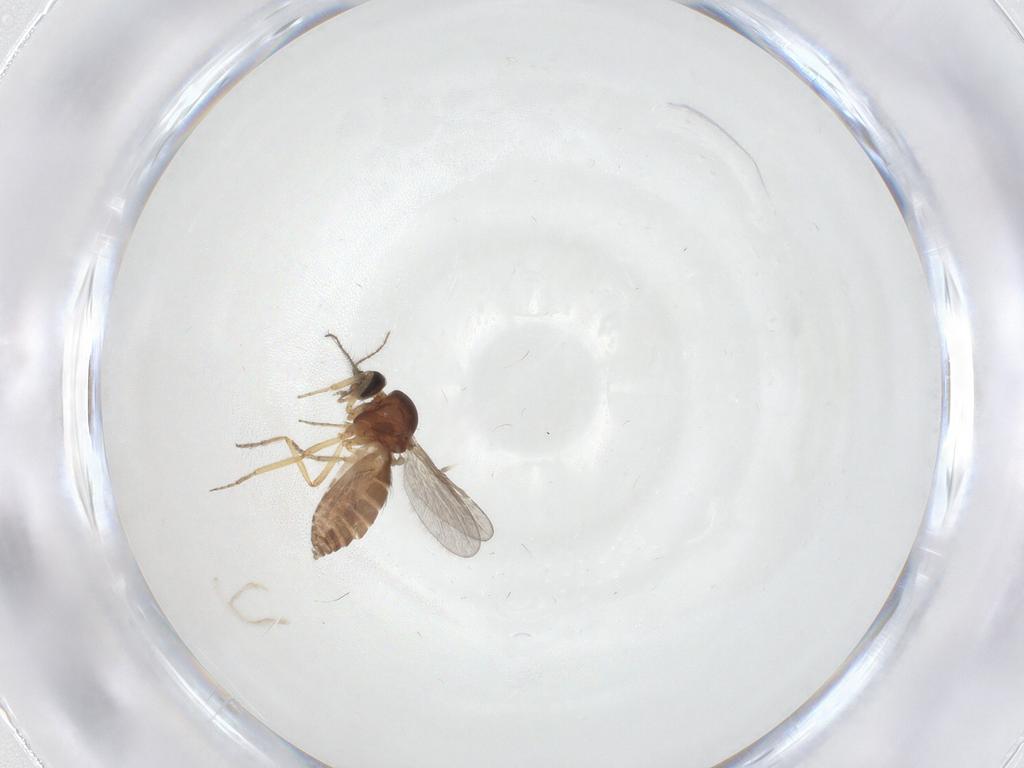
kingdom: Animalia
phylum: Arthropoda
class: Insecta
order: Diptera
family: Ceratopogonidae
